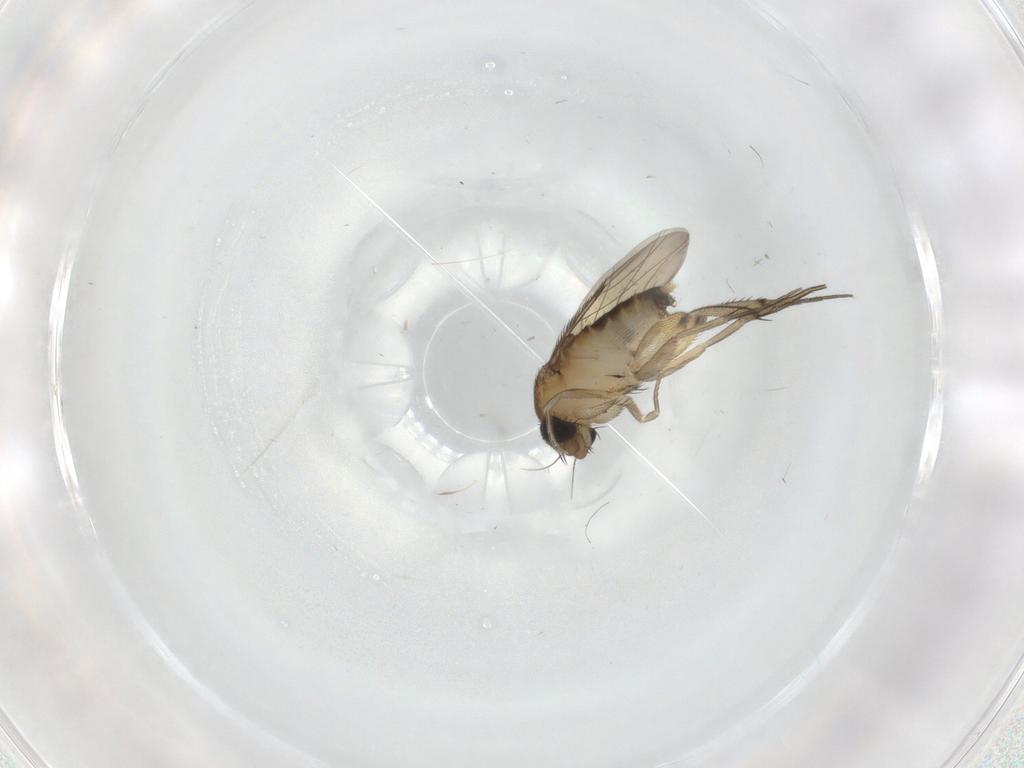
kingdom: Animalia
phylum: Arthropoda
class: Insecta
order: Diptera
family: Phoridae
